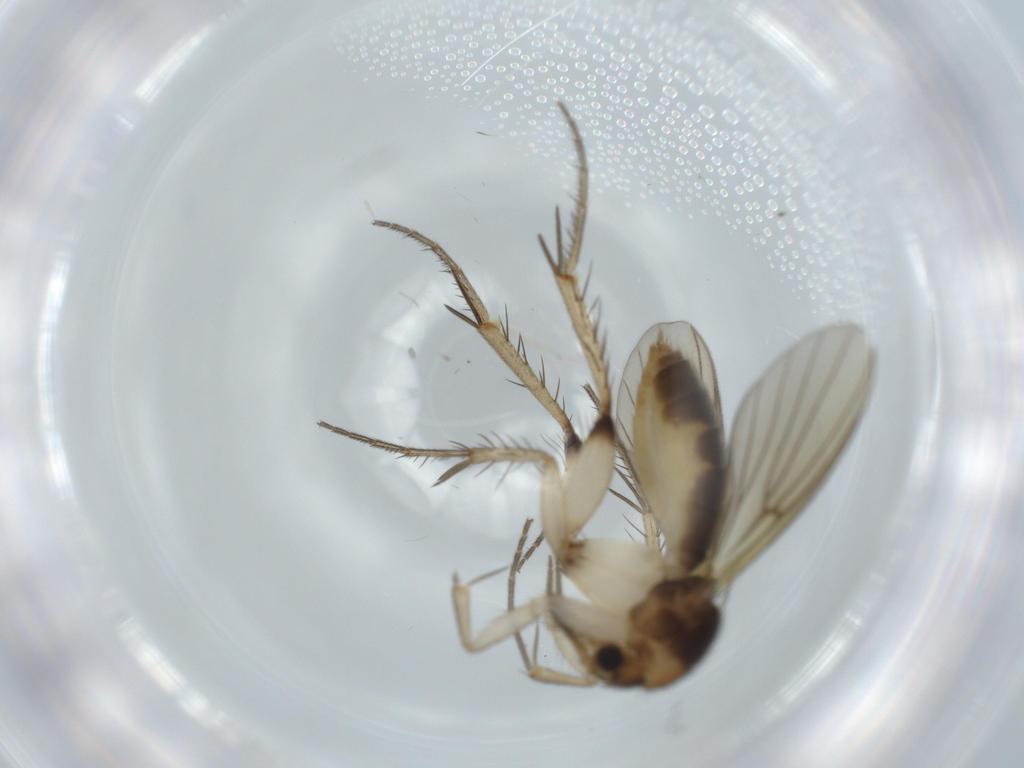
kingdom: Animalia
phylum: Arthropoda
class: Insecta
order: Diptera
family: Mycetophilidae
